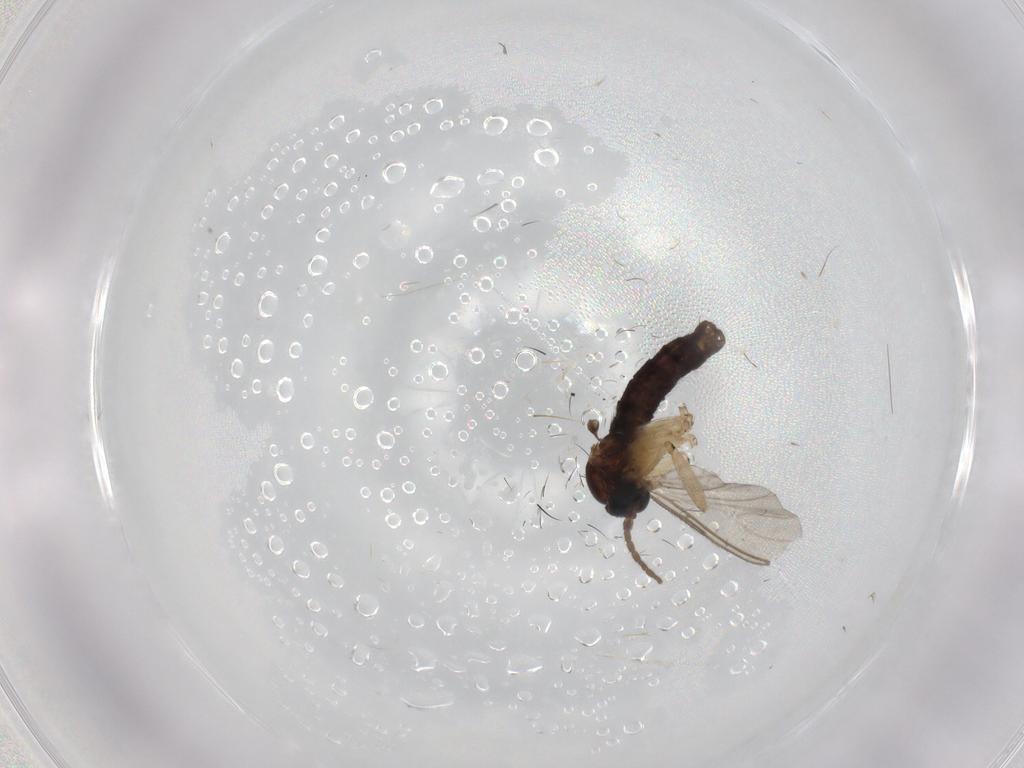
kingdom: Animalia
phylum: Arthropoda
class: Insecta
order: Diptera
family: Sciaridae
